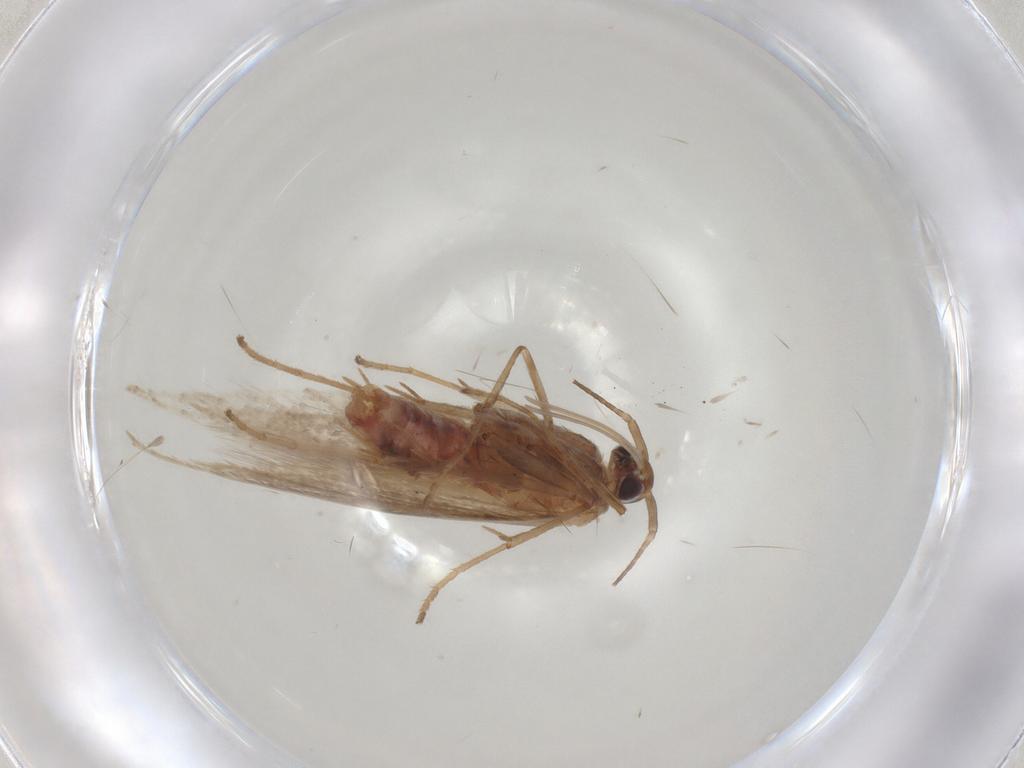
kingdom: Animalia
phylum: Arthropoda
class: Insecta
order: Lepidoptera
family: Coleophoridae
